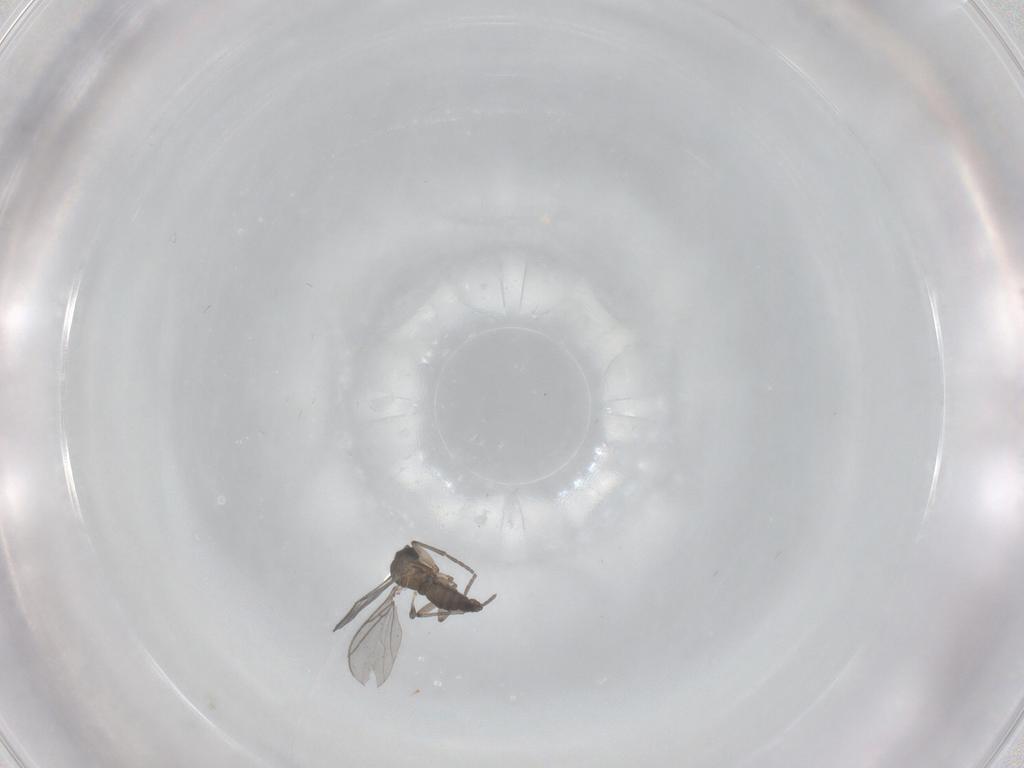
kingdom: Animalia
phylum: Arthropoda
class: Insecta
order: Diptera
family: Sciaridae
